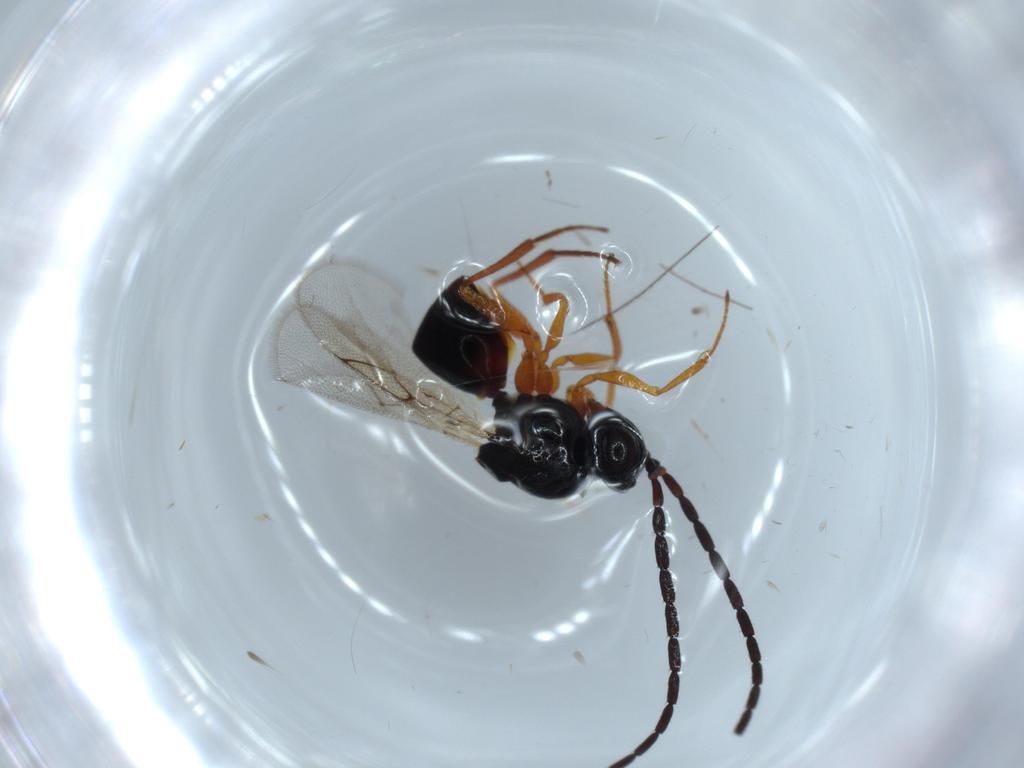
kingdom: Animalia
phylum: Arthropoda
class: Insecta
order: Hymenoptera
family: Figitidae
